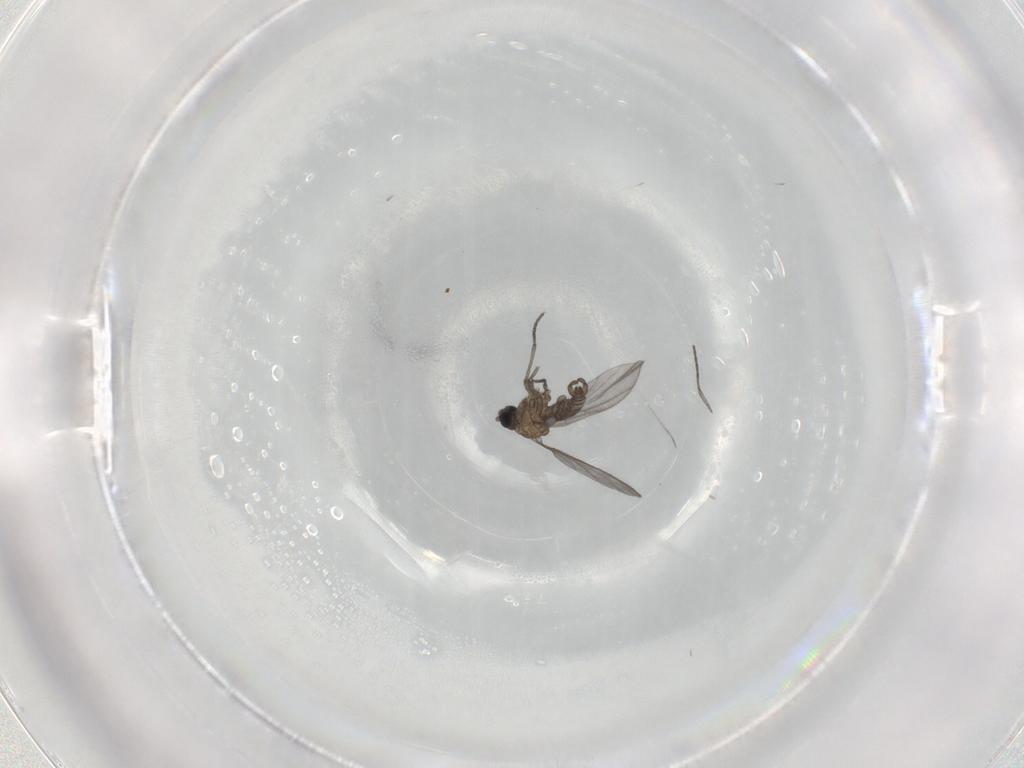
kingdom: Animalia
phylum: Arthropoda
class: Insecta
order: Diptera
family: Sciaridae
